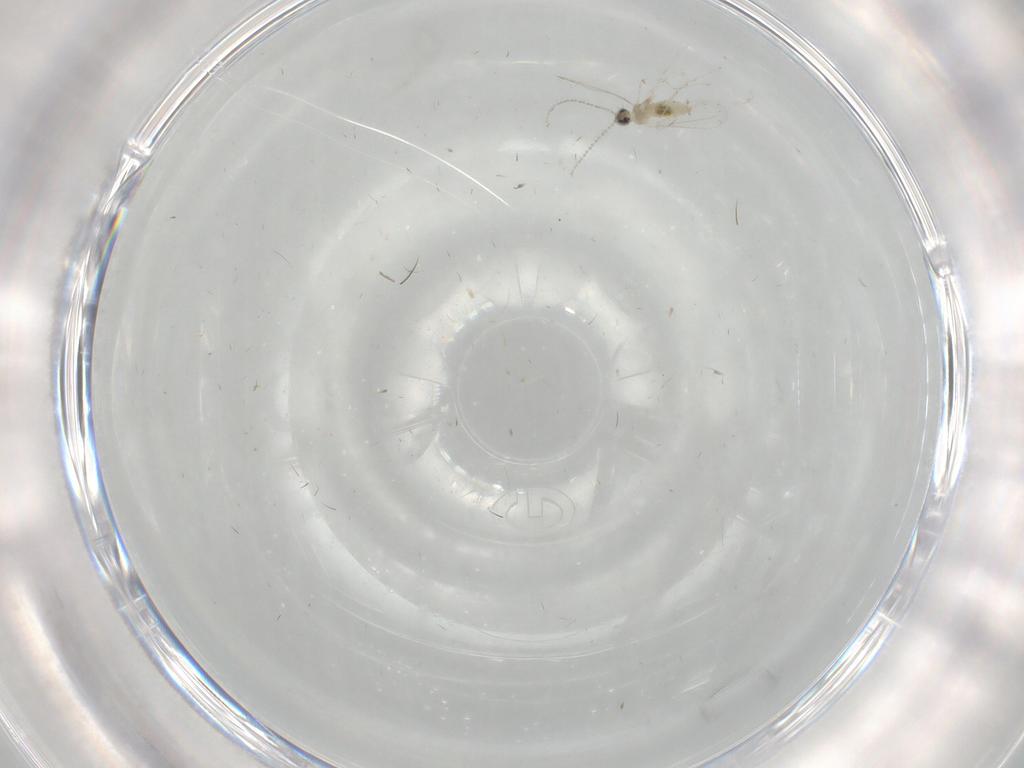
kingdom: Animalia
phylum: Arthropoda
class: Insecta
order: Diptera
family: Cecidomyiidae
